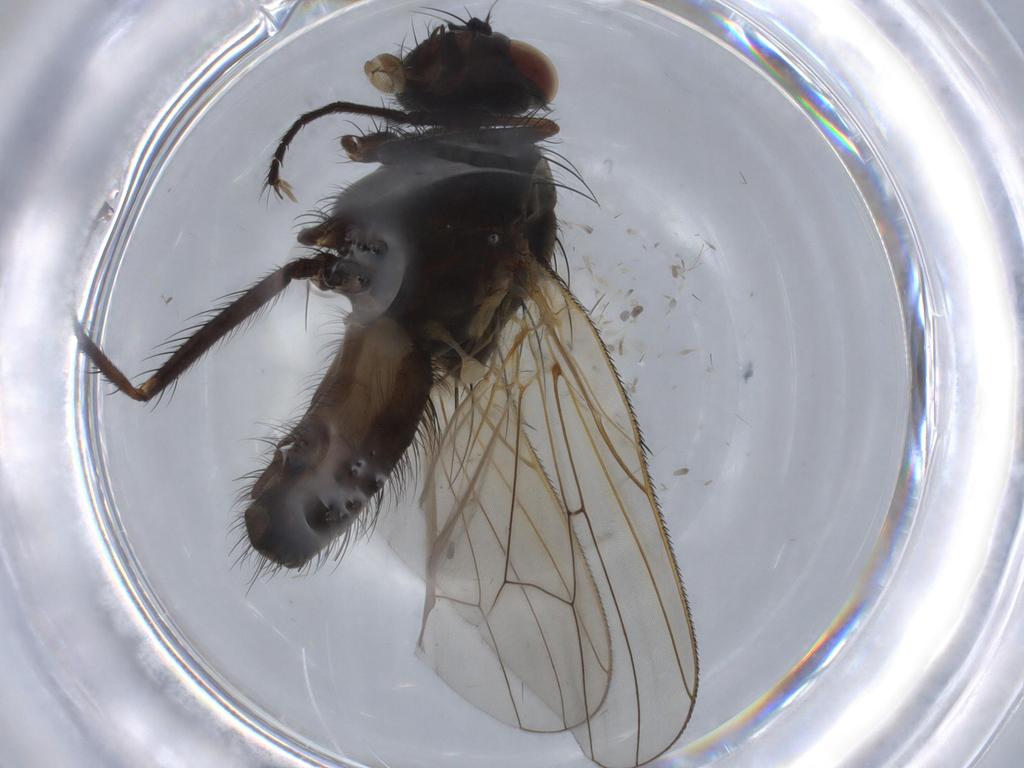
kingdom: Animalia
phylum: Arthropoda
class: Insecta
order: Diptera
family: Anthomyiidae
